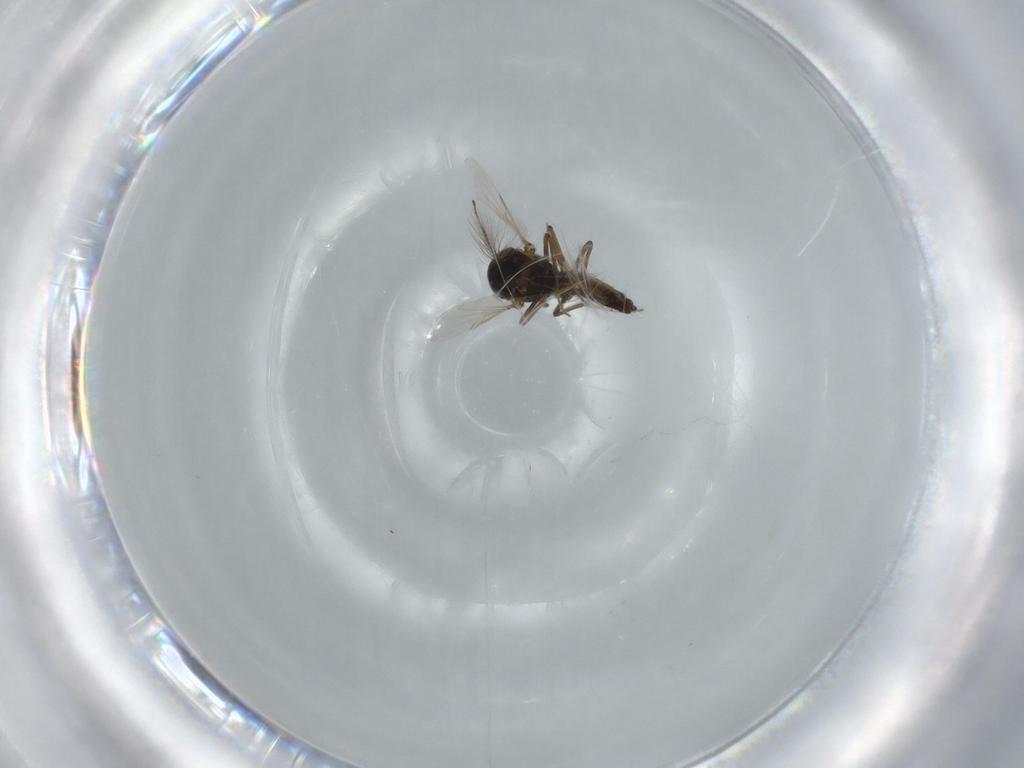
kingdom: Animalia
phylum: Arthropoda
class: Insecta
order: Diptera
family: Ceratopogonidae
